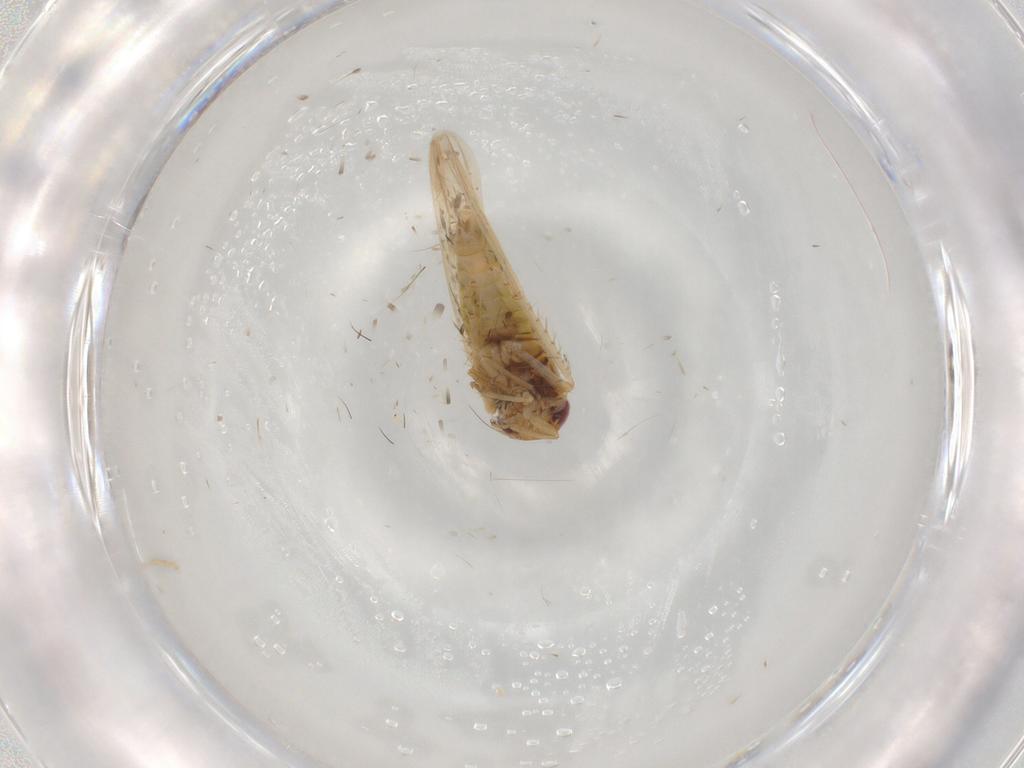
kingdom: Animalia
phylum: Arthropoda
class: Insecta
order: Hemiptera
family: Cicadellidae
